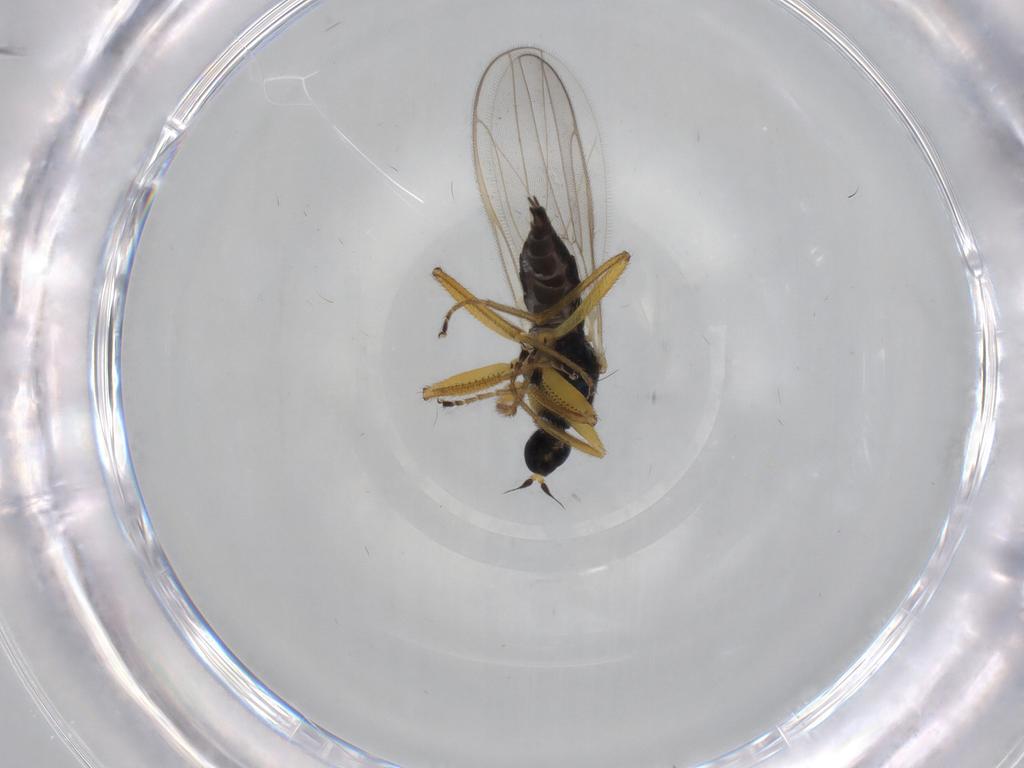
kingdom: Animalia
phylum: Arthropoda
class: Insecta
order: Diptera
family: Hybotidae
